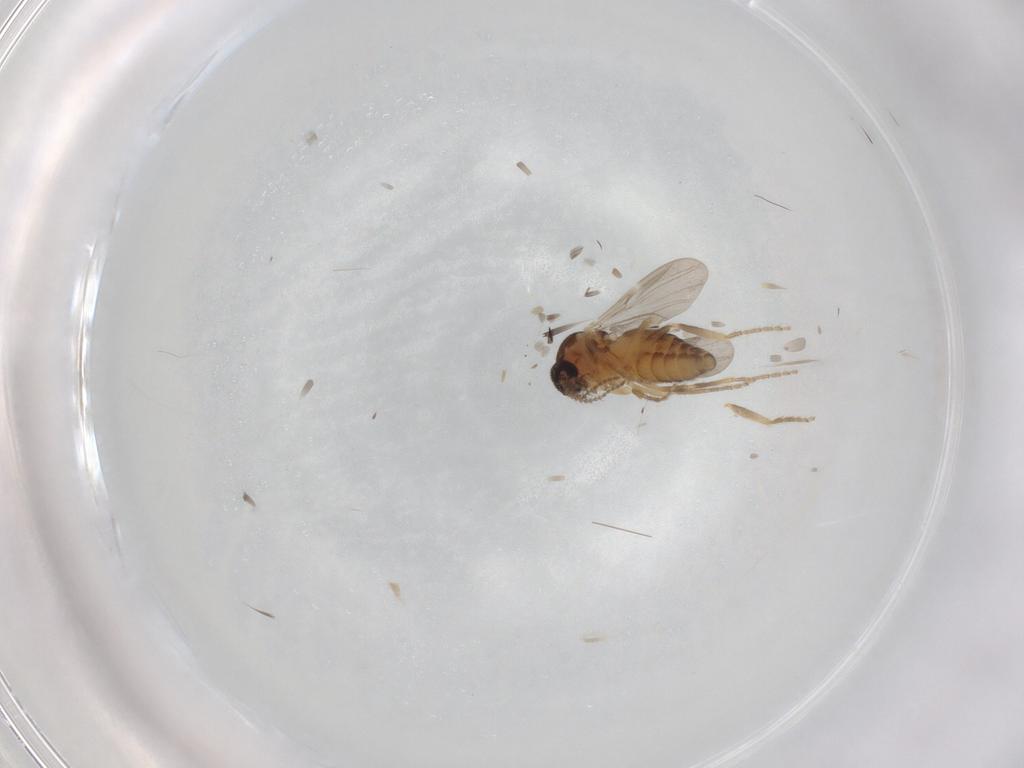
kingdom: Animalia
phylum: Arthropoda
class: Insecta
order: Diptera
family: Ceratopogonidae
